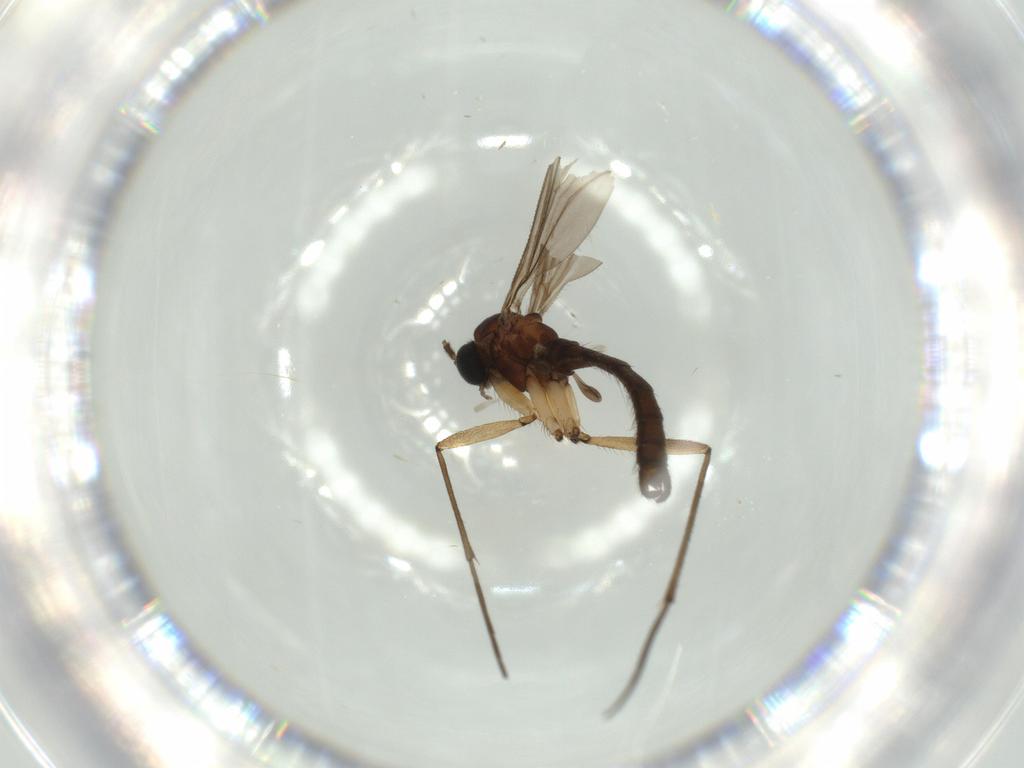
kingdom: Animalia
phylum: Arthropoda
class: Insecta
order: Diptera
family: Sciaridae
